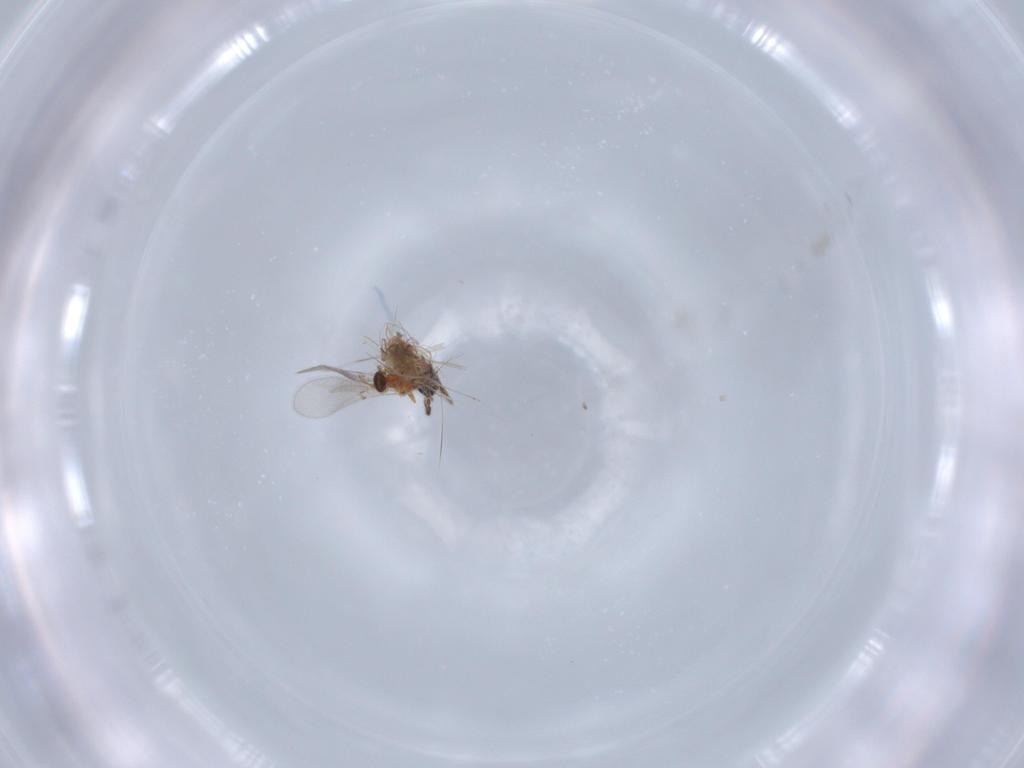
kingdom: Animalia
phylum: Arthropoda
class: Insecta
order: Diptera
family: Cecidomyiidae
